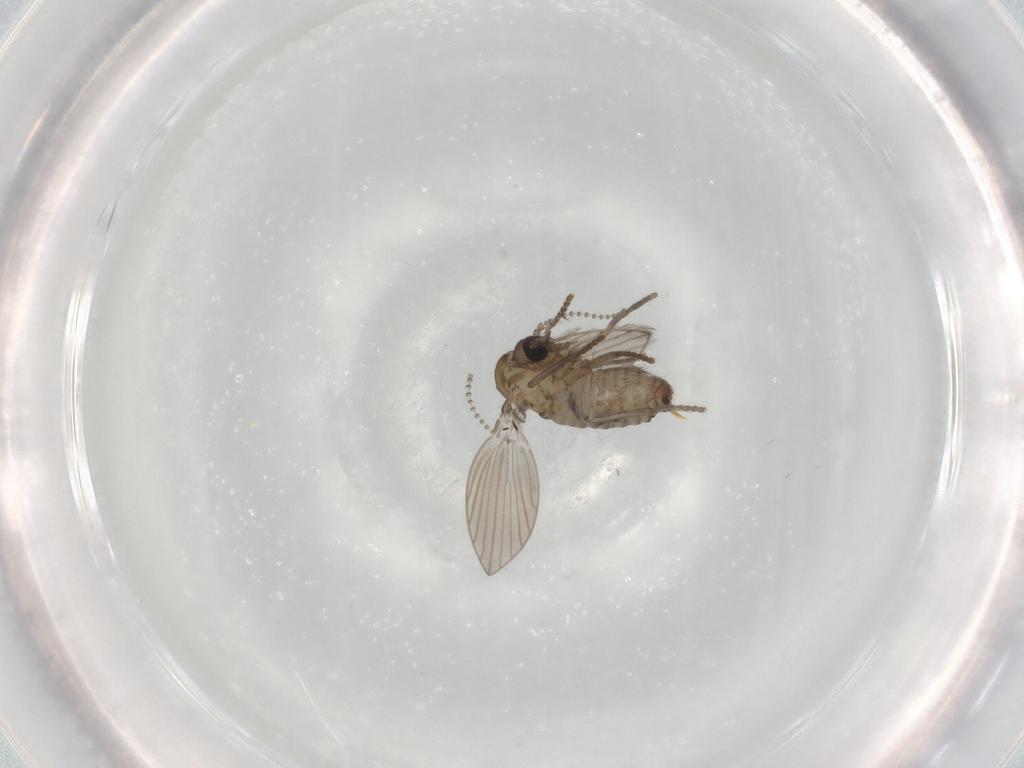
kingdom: Animalia
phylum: Arthropoda
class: Insecta
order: Diptera
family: Psychodidae
